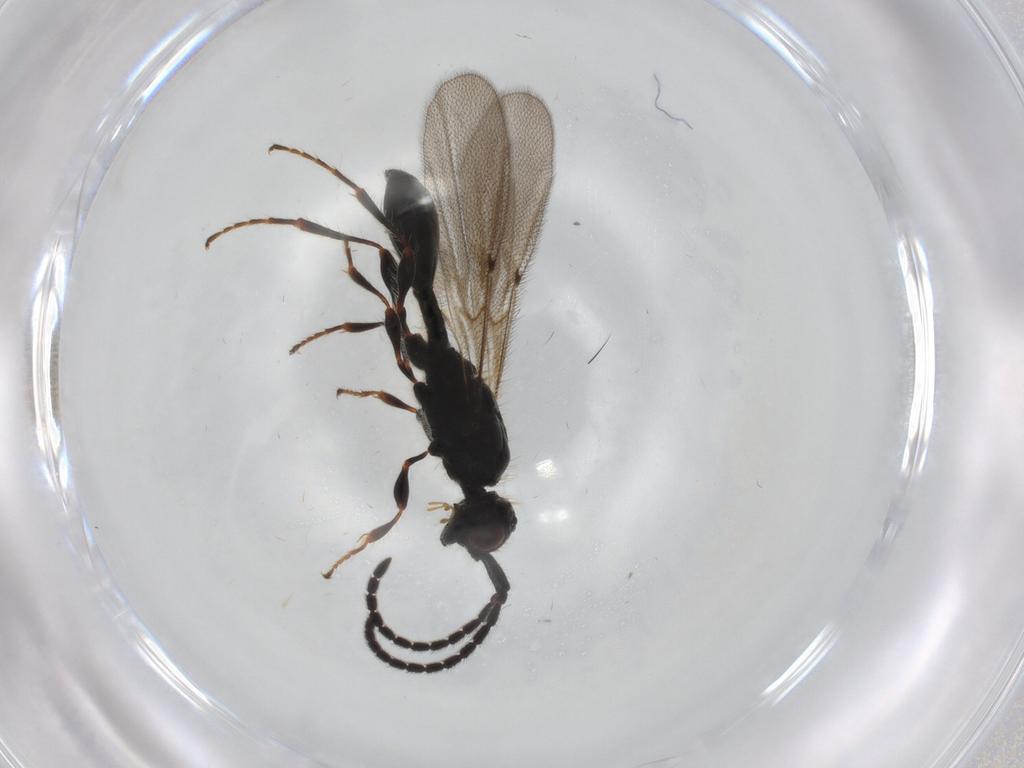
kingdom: Animalia
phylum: Arthropoda
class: Insecta
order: Hymenoptera
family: Diapriidae
